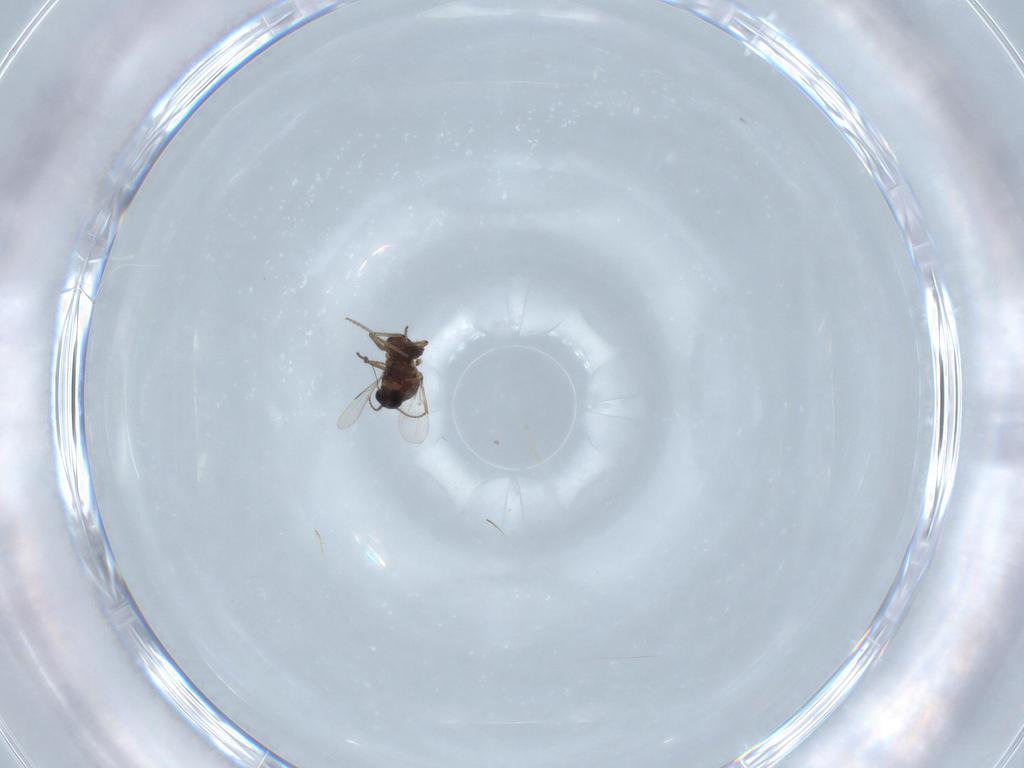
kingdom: Animalia
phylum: Arthropoda
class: Insecta
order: Diptera
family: Ceratopogonidae
